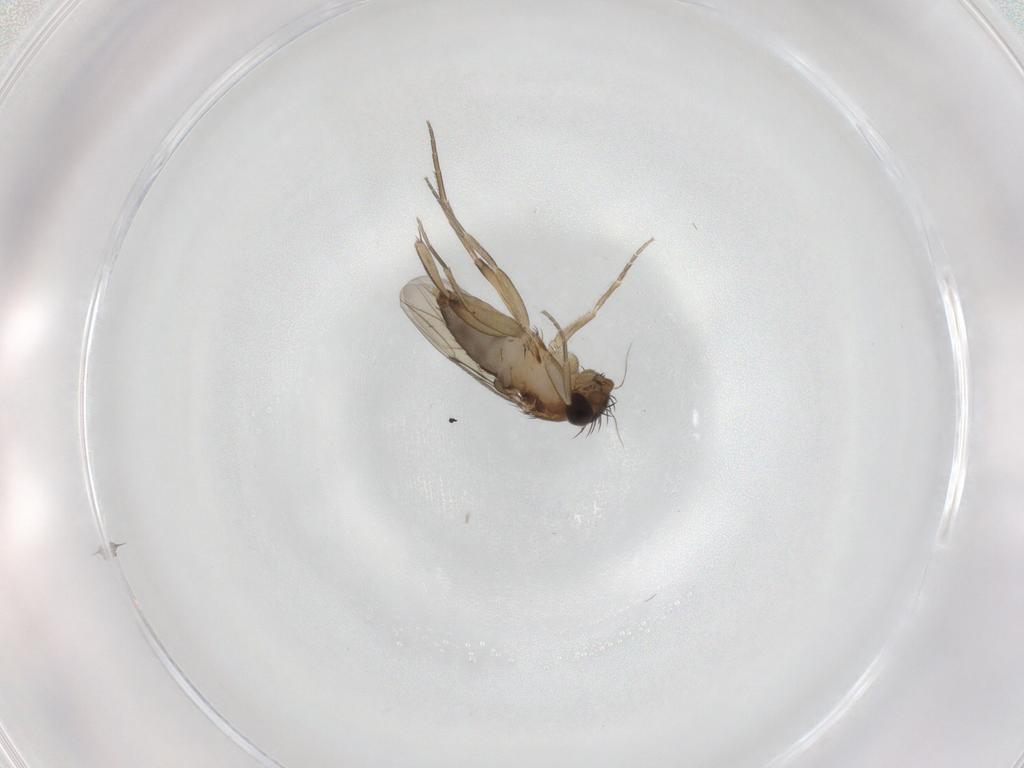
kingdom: Animalia
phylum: Arthropoda
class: Insecta
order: Diptera
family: Phoridae
